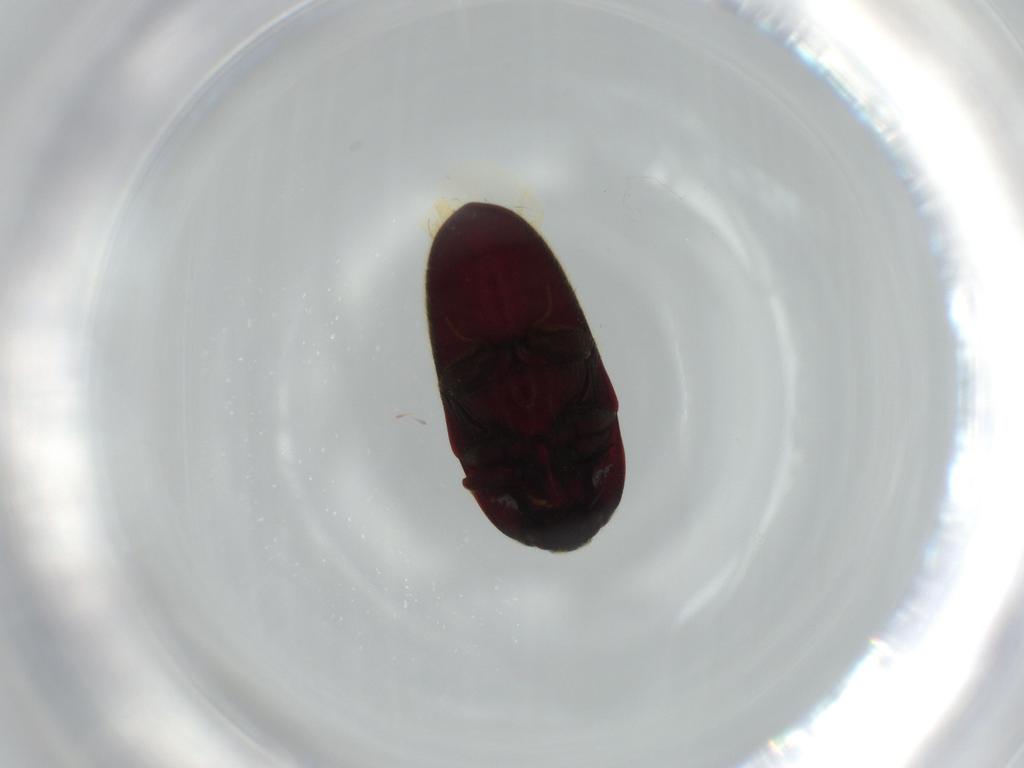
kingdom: Animalia
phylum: Arthropoda
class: Insecta
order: Coleoptera
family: Throscidae
